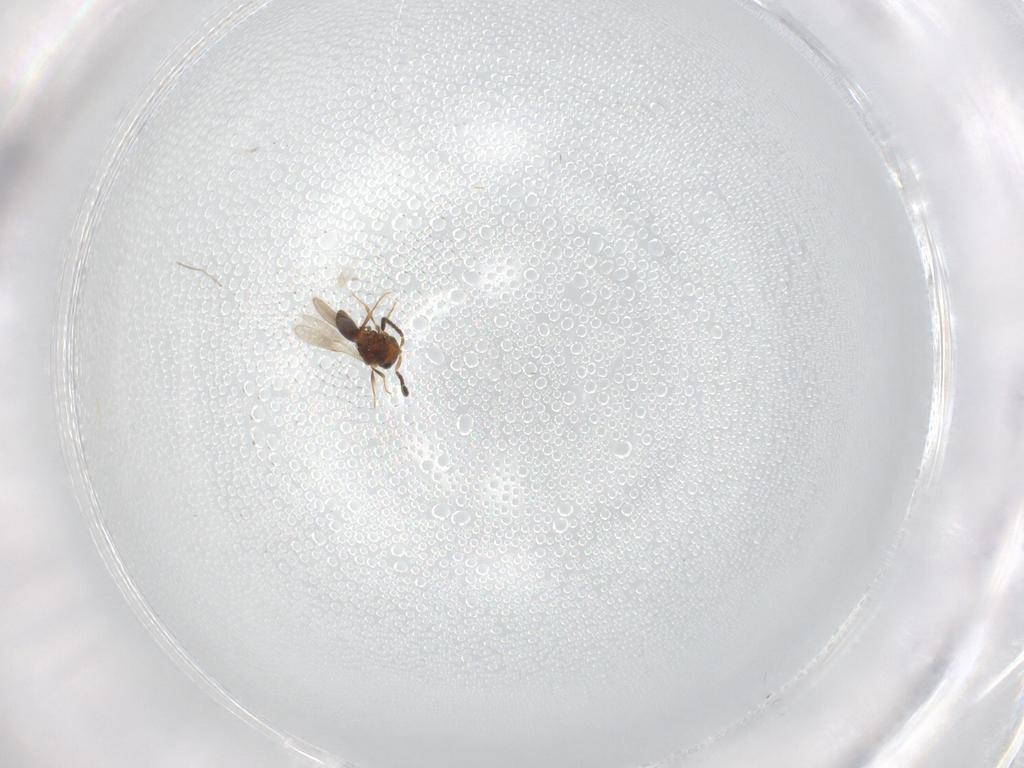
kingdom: Animalia
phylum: Arthropoda
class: Insecta
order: Hymenoptera
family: Scelionidae
